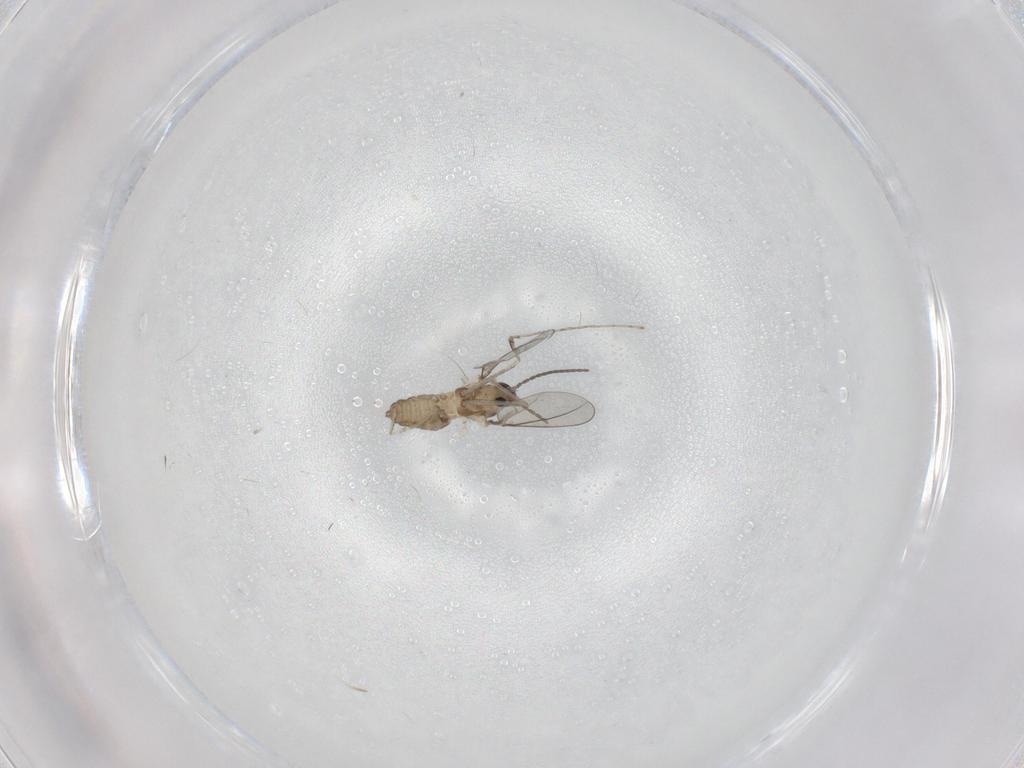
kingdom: Animalia
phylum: Arthropoda
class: Insecta
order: Diptera
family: Cecidomyiidae
